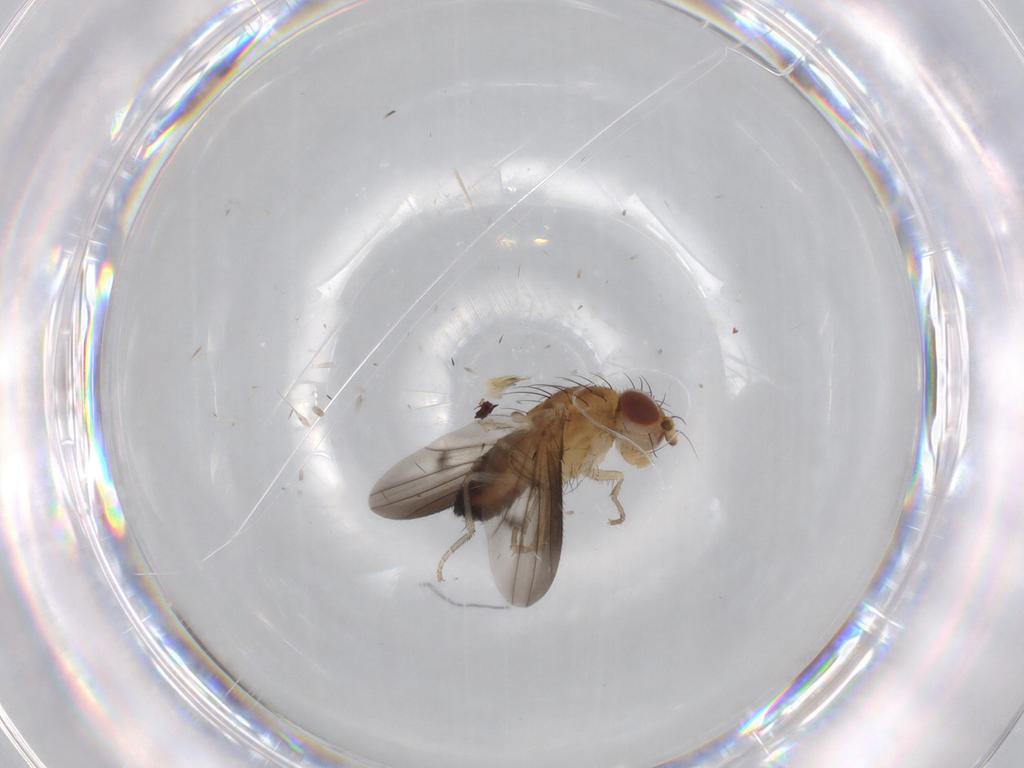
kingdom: Animalia
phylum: Arthropoda
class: Insecta
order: Diptera
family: Heleomyzidae
